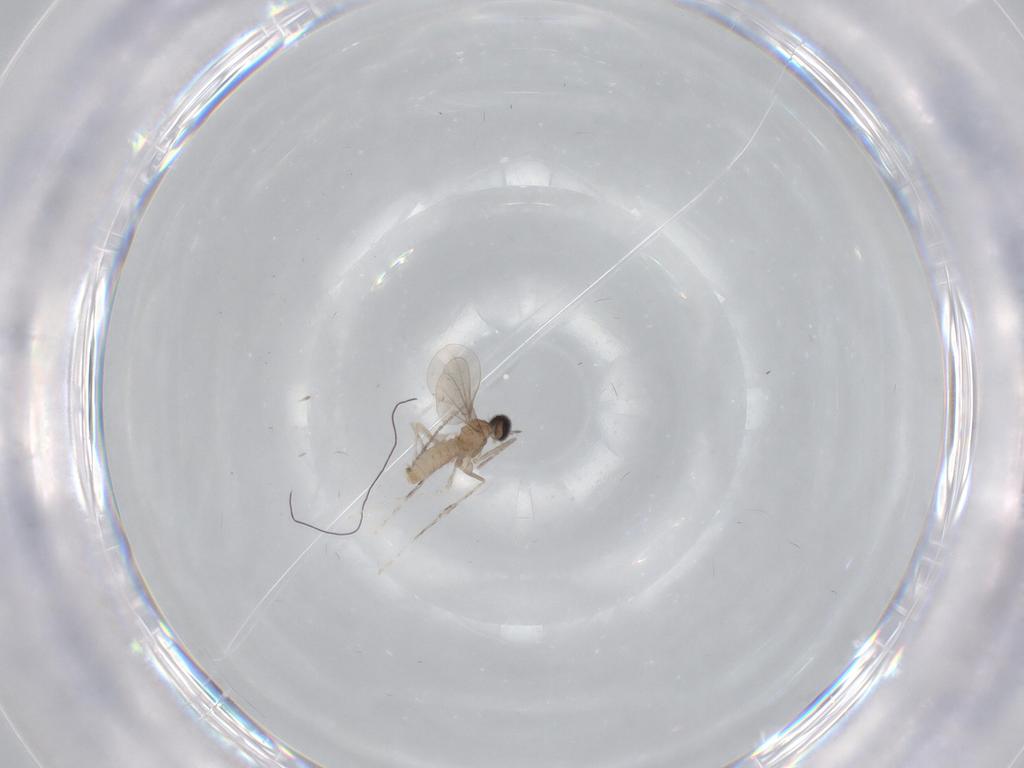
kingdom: Animalia
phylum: Arthropoda
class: Insecta
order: Diptera
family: Cecidomyiidae
